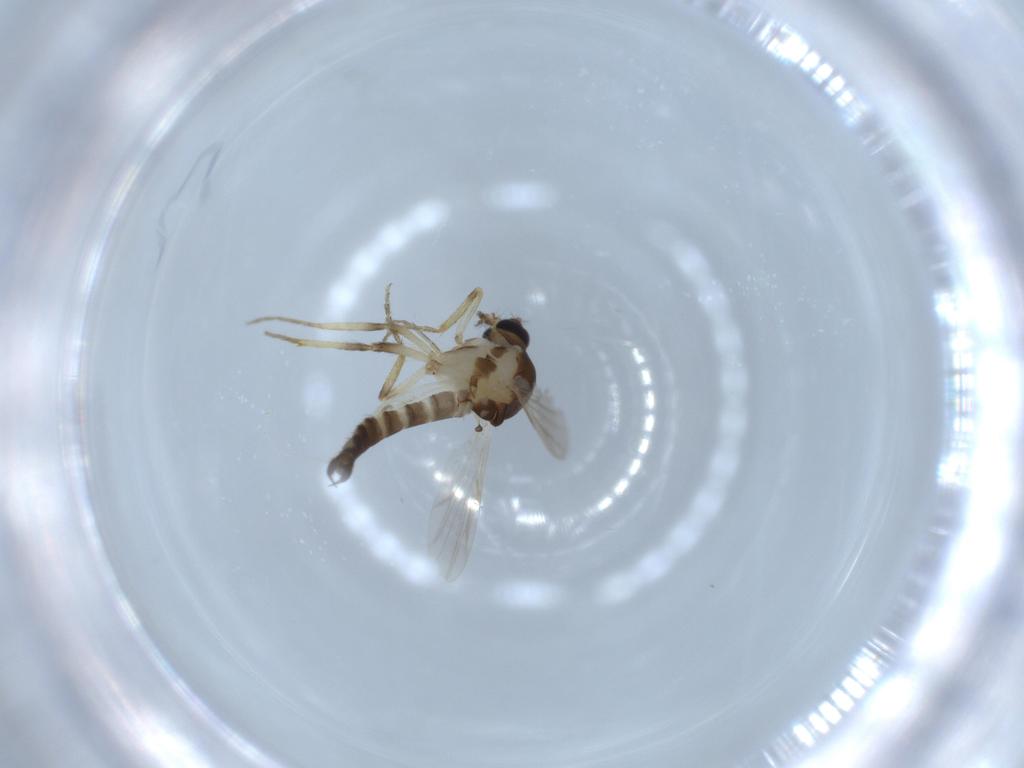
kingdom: Animalia
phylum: Arthropoda
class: Insecta
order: Diptera
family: Ceratopogonidae
